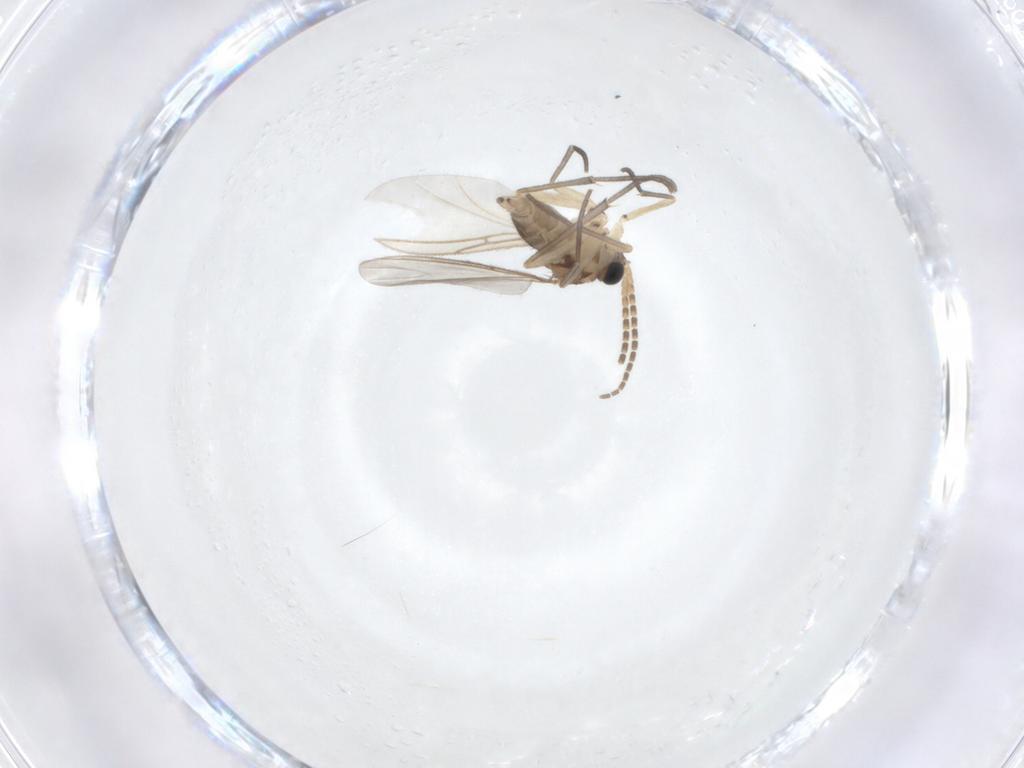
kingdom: Animalia
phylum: Arthropoda
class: Insecta
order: Diptera
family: Sciaridae
